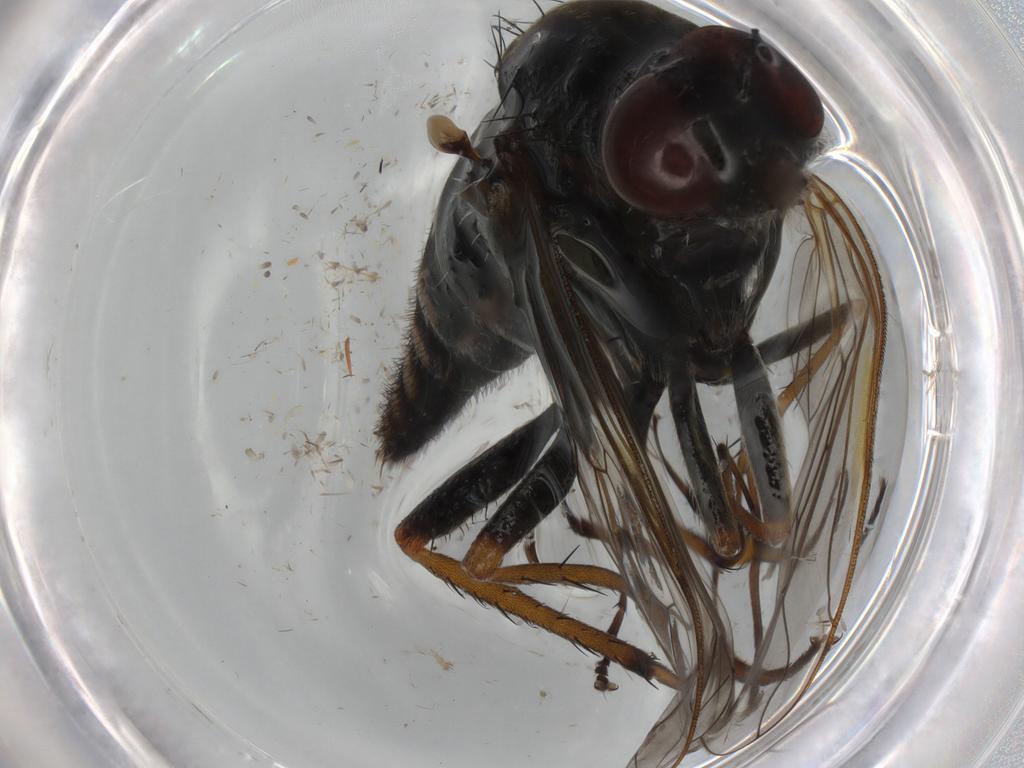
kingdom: Animalia
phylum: Arthropoda
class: Insecta
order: Diptera
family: Therevidae
